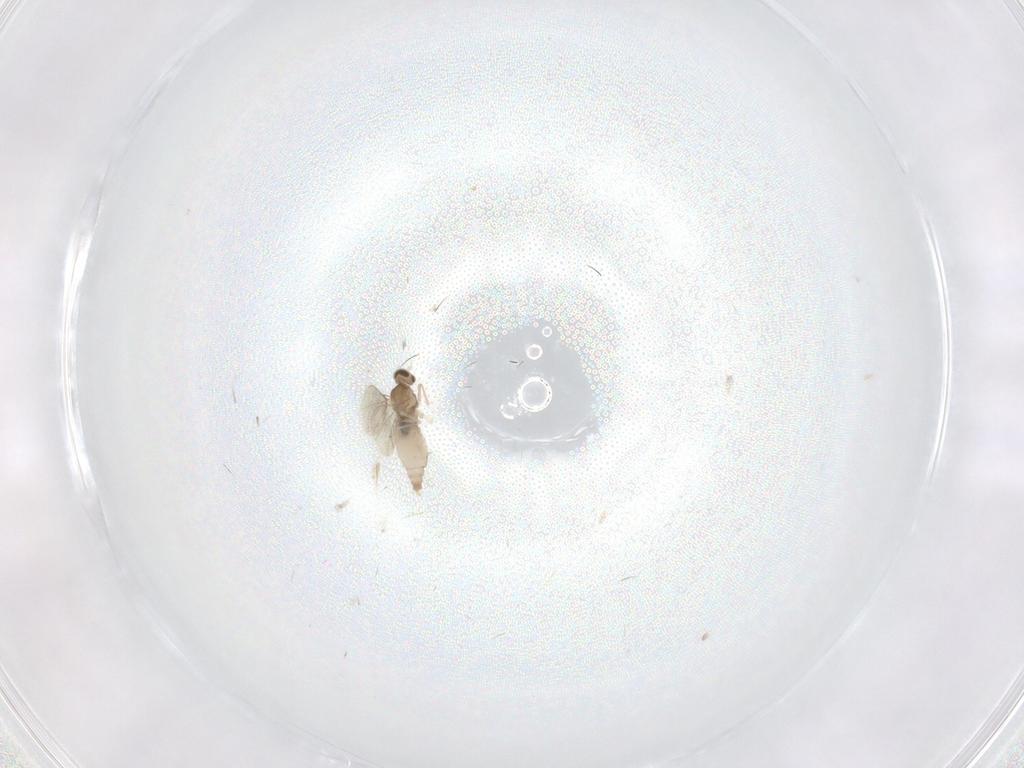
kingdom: Animalia
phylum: Arthropoda
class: Insecta
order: Diptera
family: Cecidomyiidae
